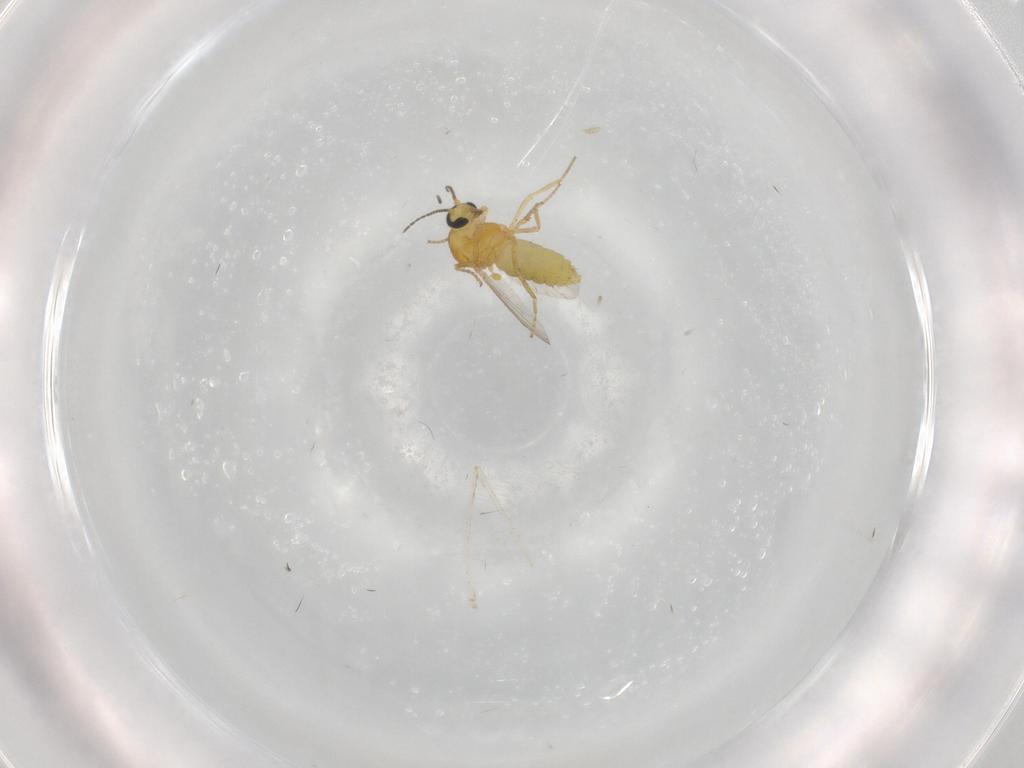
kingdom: Animalia
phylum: Arthropoda
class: Insecta
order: Diptera
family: Ceratopogonidae
